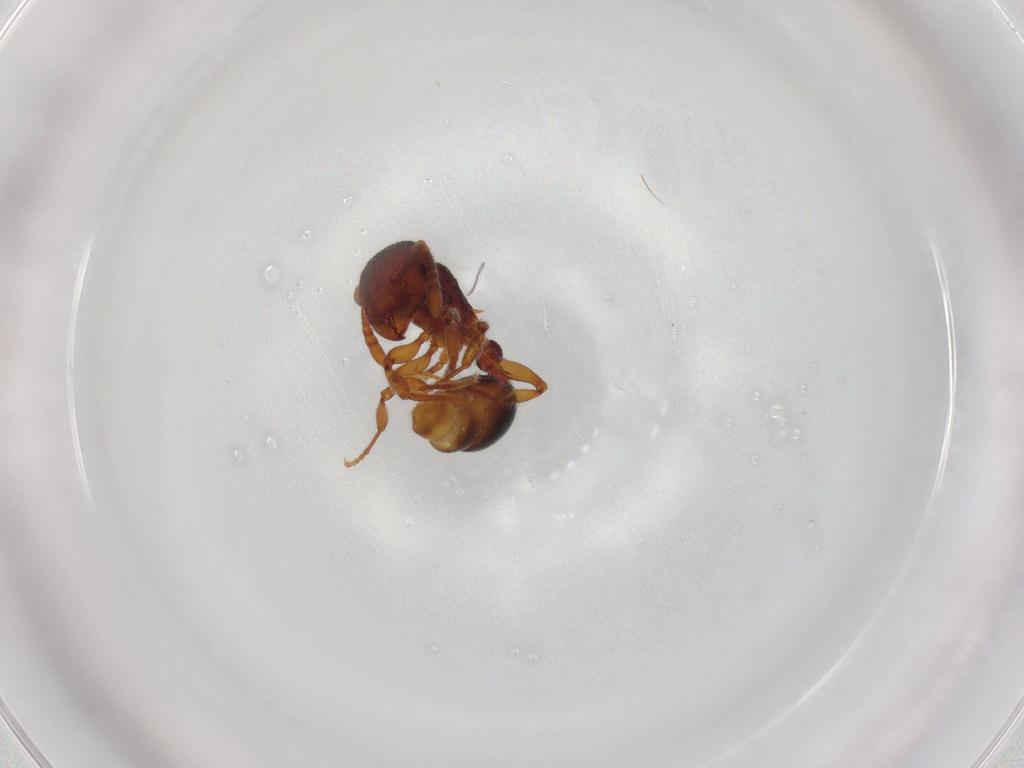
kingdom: Animalia
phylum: Arthropoda
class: Insecta
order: Hymenoptera
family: Formicidae
